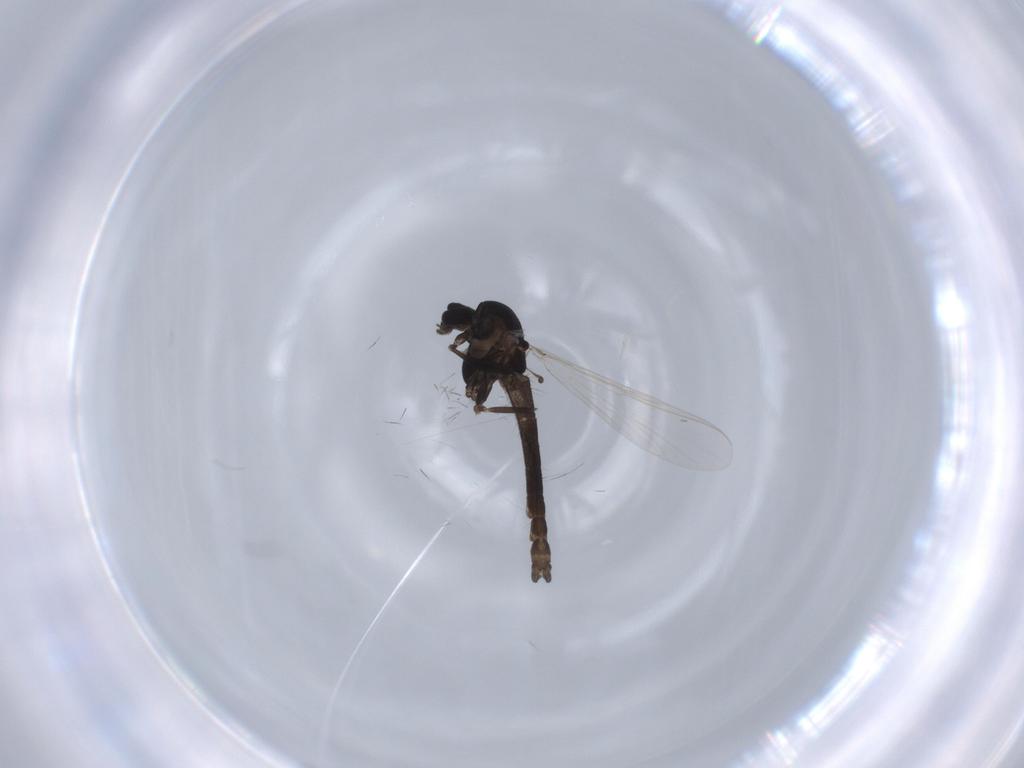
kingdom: Animalia
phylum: Arthropoda
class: Insecta
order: Diptera
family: Chironomidae
